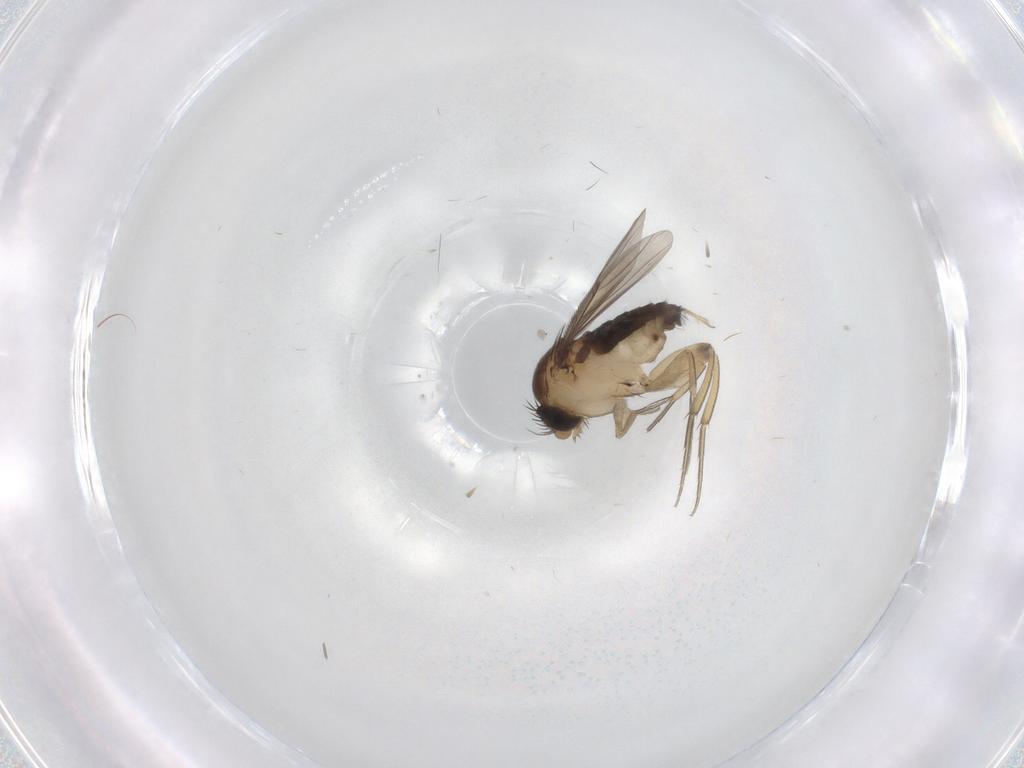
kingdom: Animalia
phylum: Arthropoda
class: Insecta
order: Diptera
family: Phoridae
